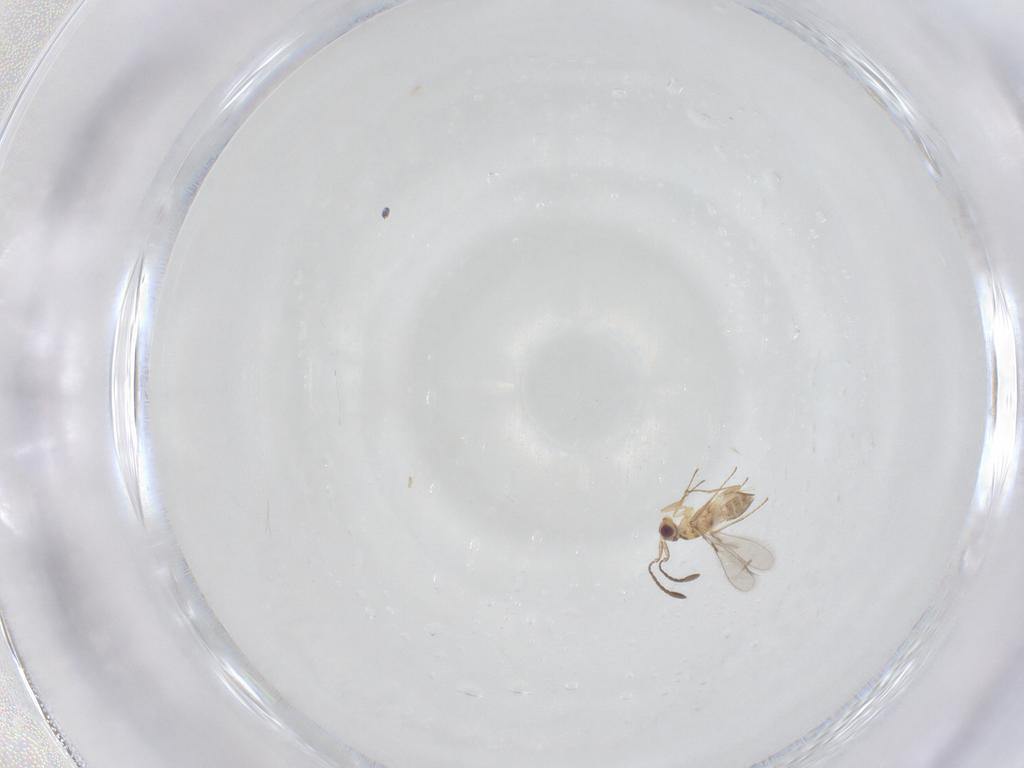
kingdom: Animalia
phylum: Arthropoda
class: Insecta
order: Hymenoptera
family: Mymaridae
